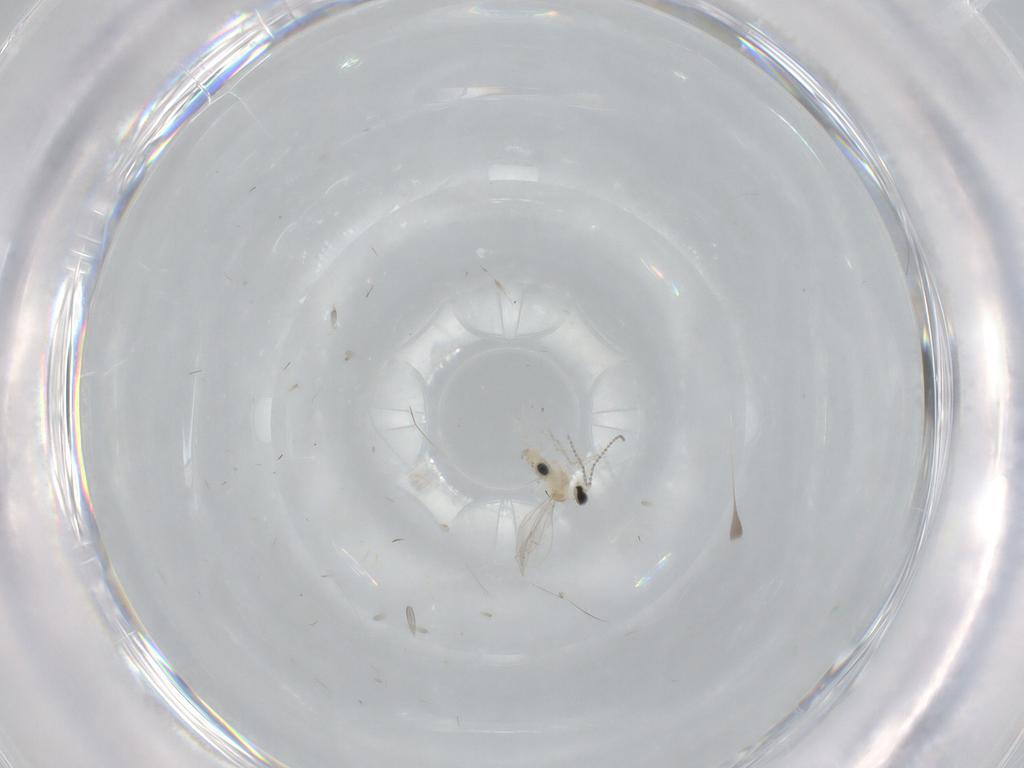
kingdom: Animalia
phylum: Arthropoda
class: Insecta
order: Diptera
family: Cecidomyiidae
